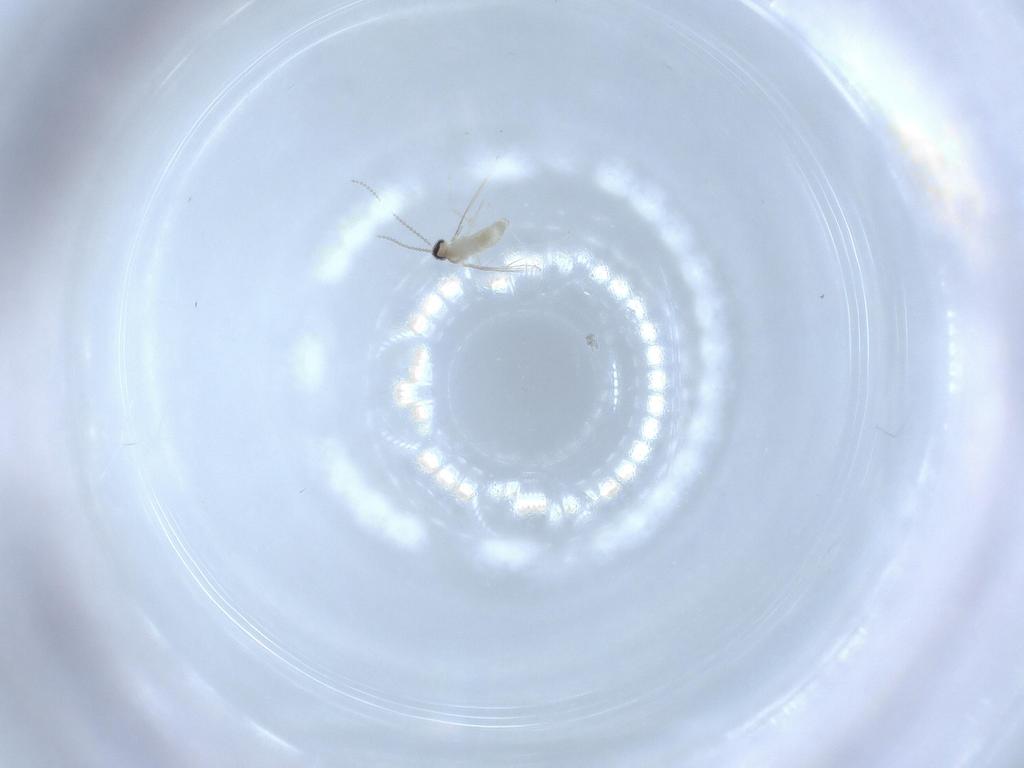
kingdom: Animalia
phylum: Arthropoda
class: Insecta
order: Diptera
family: Cecidomyiidae
